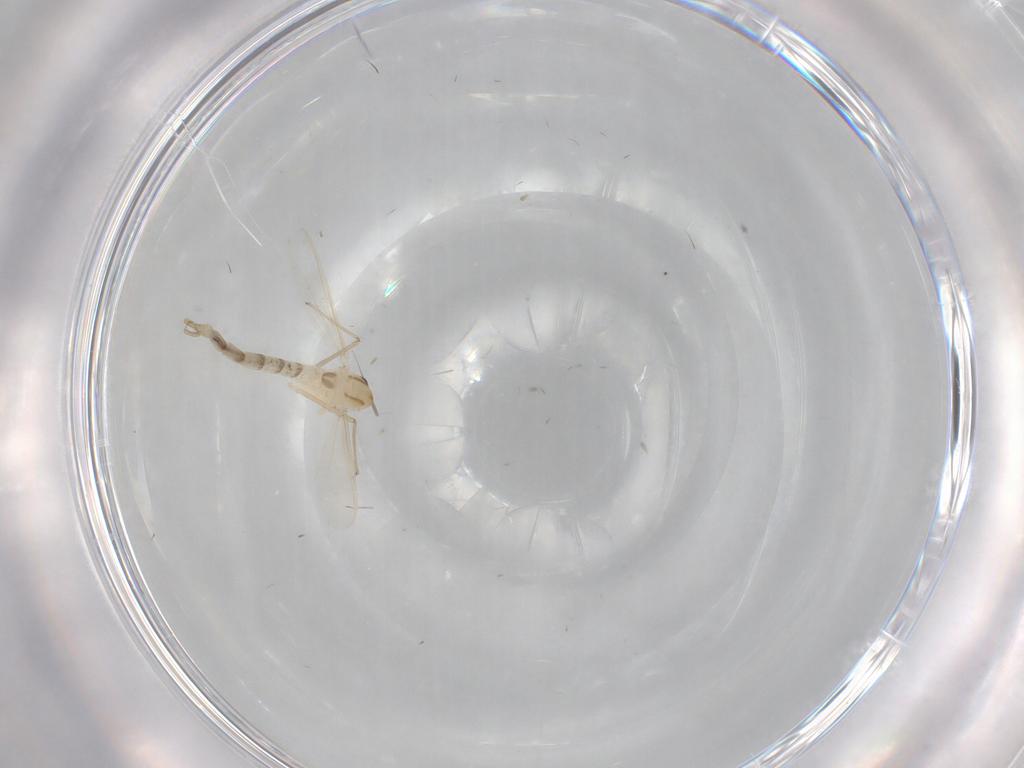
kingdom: Animalia
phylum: Arthropoda
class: Insecta
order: Diptera
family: Chironomidae
